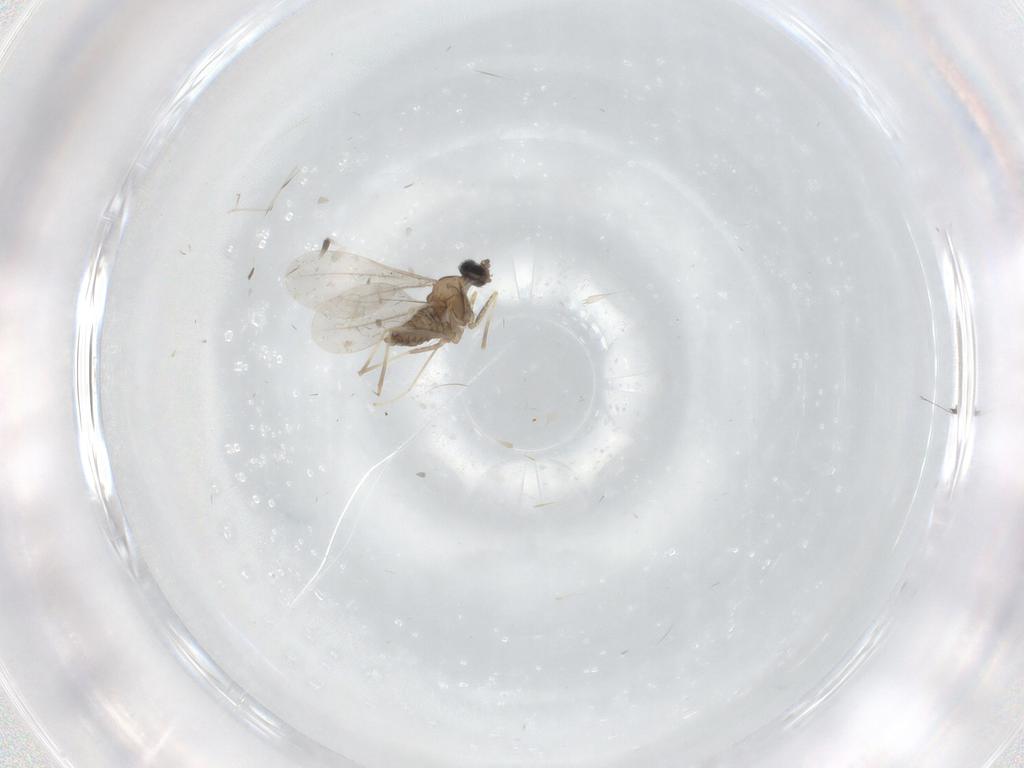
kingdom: Animalia
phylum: Arthropoda
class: Insecta
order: Diptera
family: Cecidomyiidae
